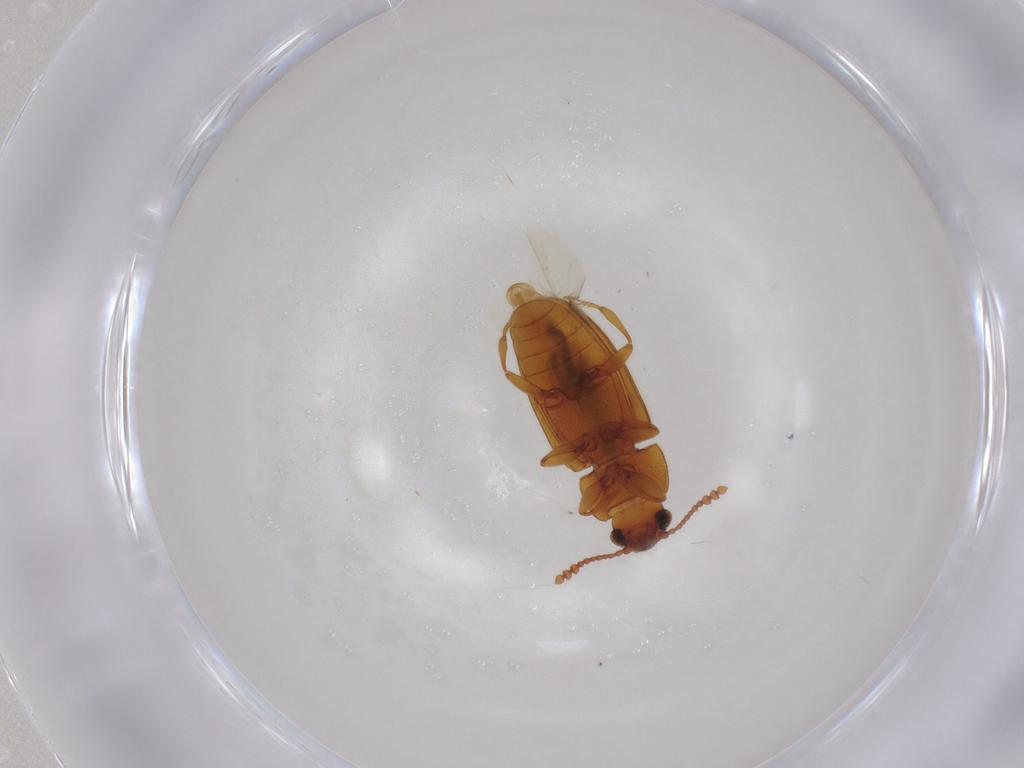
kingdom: Animalia
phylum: Arthropoda
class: Insecta
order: Coleoptera
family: Erotylidae
